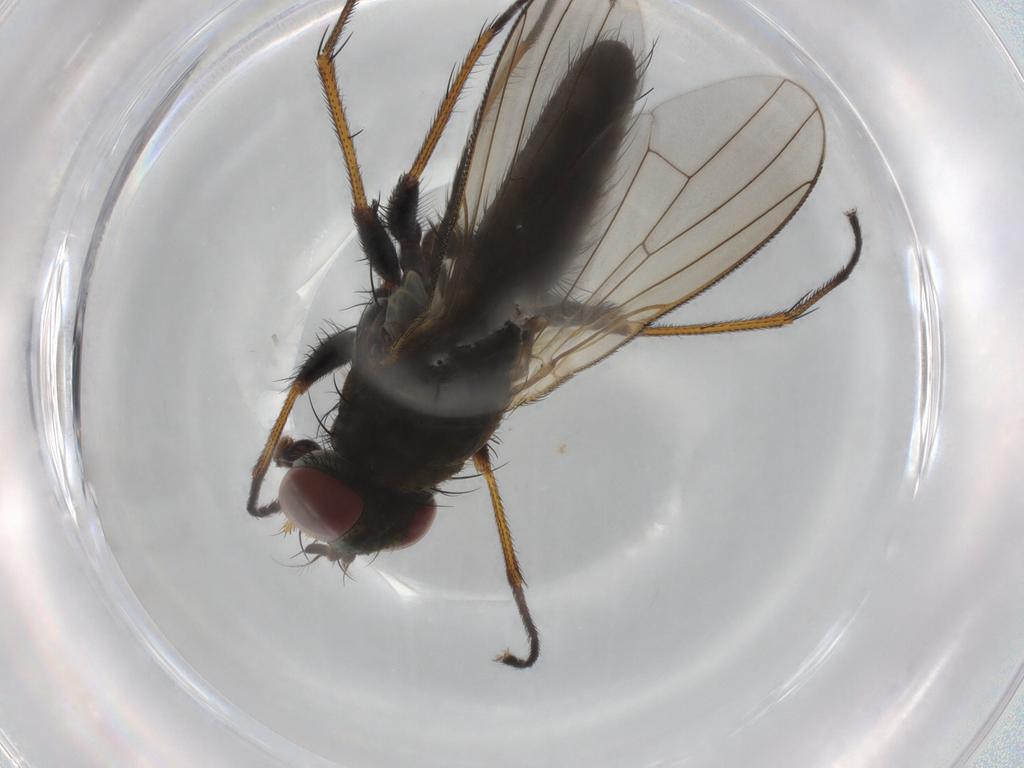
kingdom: Animalia
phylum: Arthropoda
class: Insecta
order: Diptera
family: Muscidae
